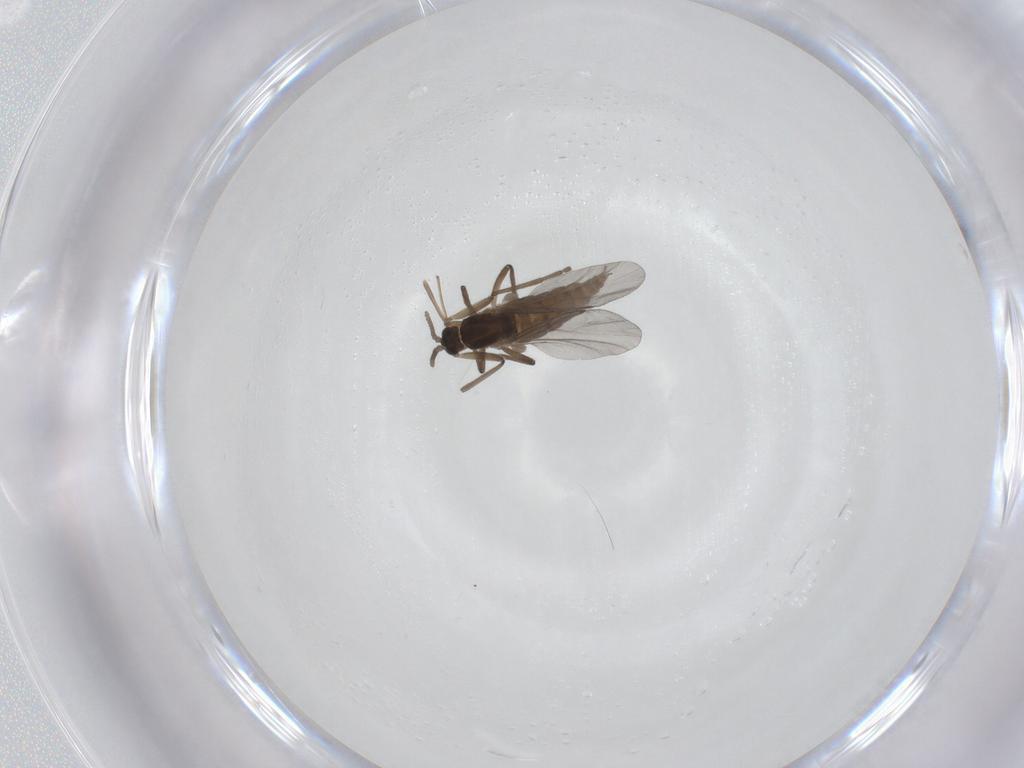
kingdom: Animalia
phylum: Arthropoda
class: Insecta
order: Diptera
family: Cecidomyiidae
